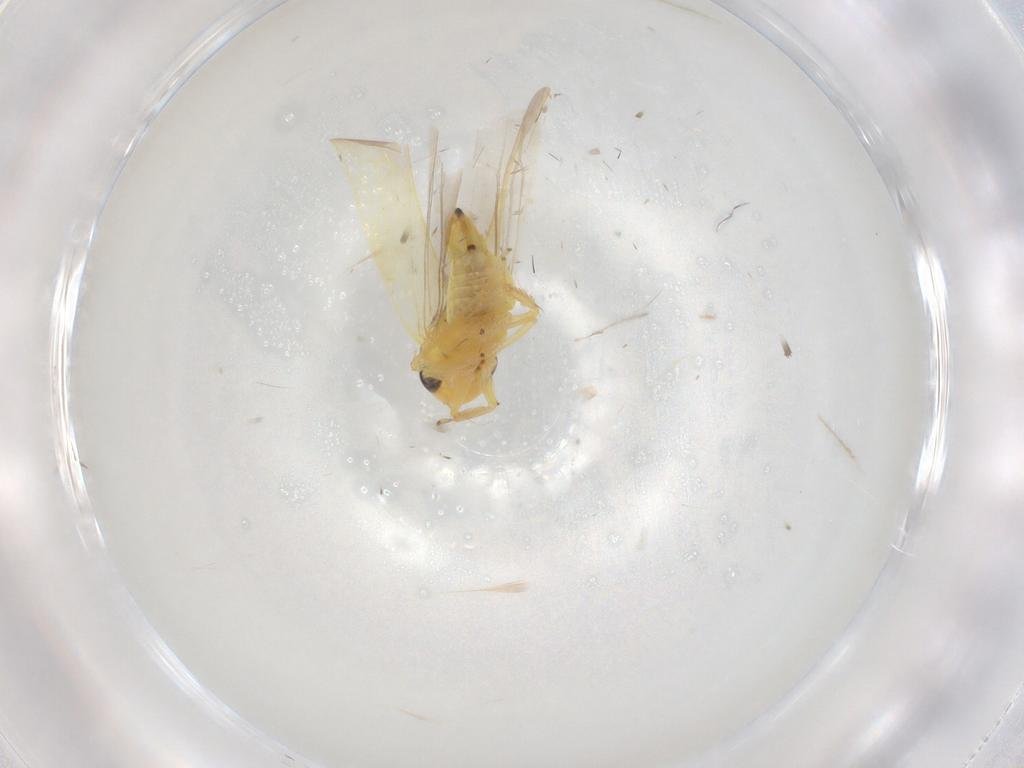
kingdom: Animalia
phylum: Arthropoda
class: Insecta
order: Hemiptera
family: Cicadellidae
